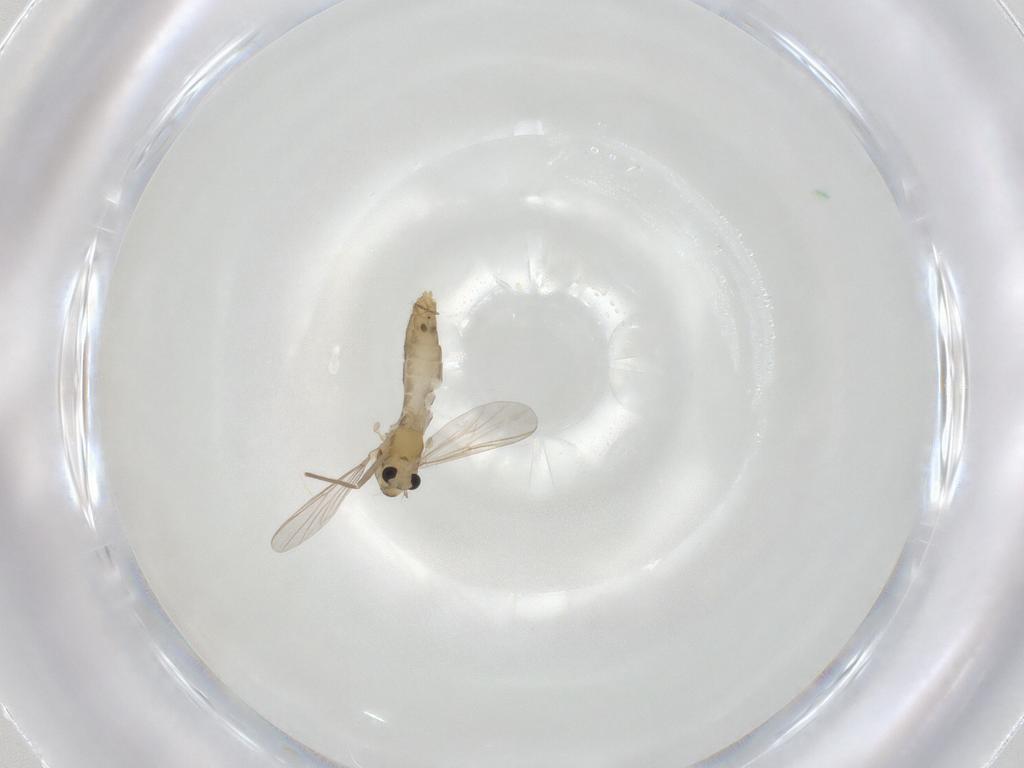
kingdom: Animalia
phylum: Arthropoda
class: Insecta
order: Diptera
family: Chironomidae
